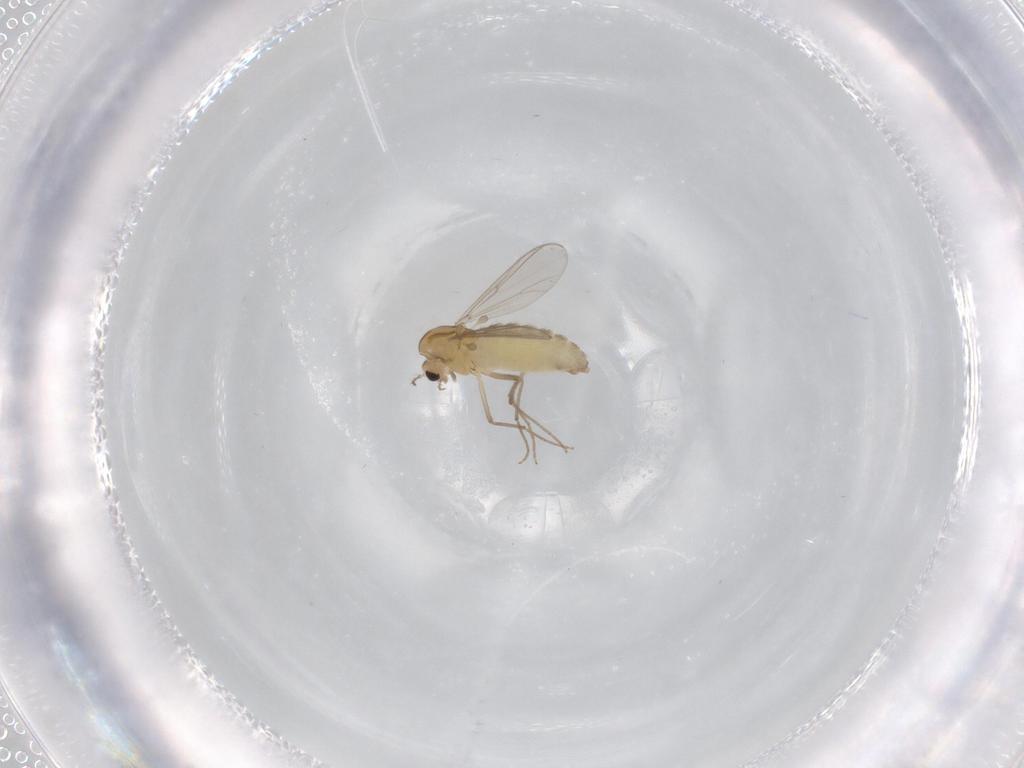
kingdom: Animalia
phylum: Arthropoda
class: Insecta
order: Diptera
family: Chironomidae
